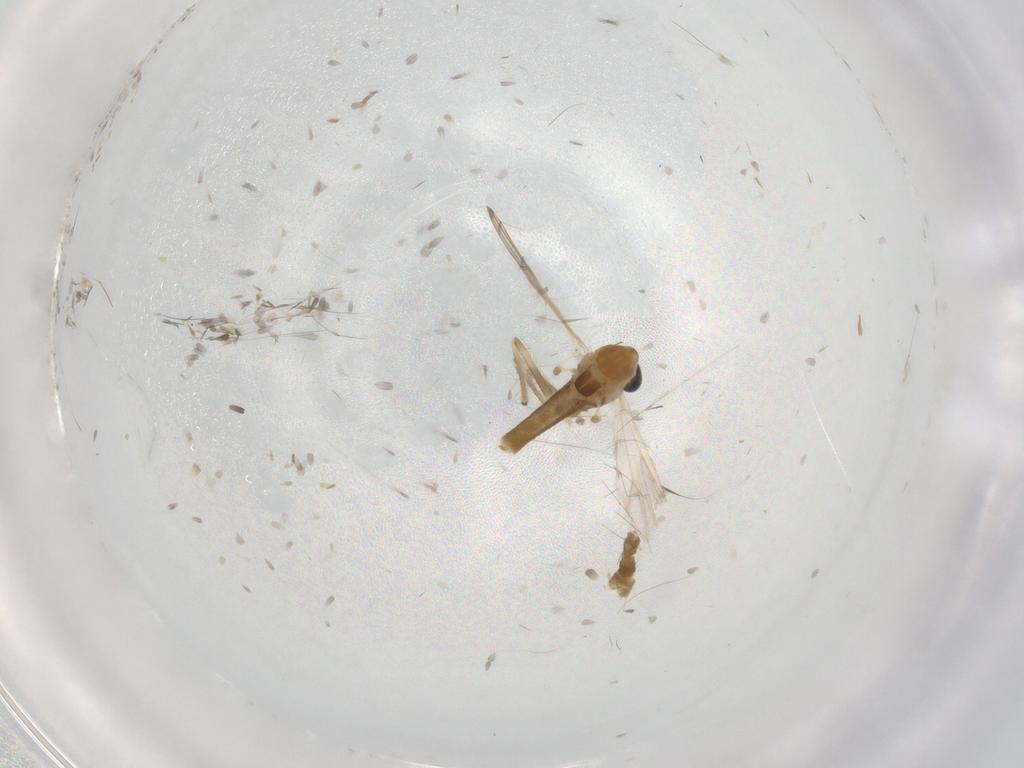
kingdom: Animalia
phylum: Arthropoda
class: Insecta
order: Diptera
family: Chironomidae
